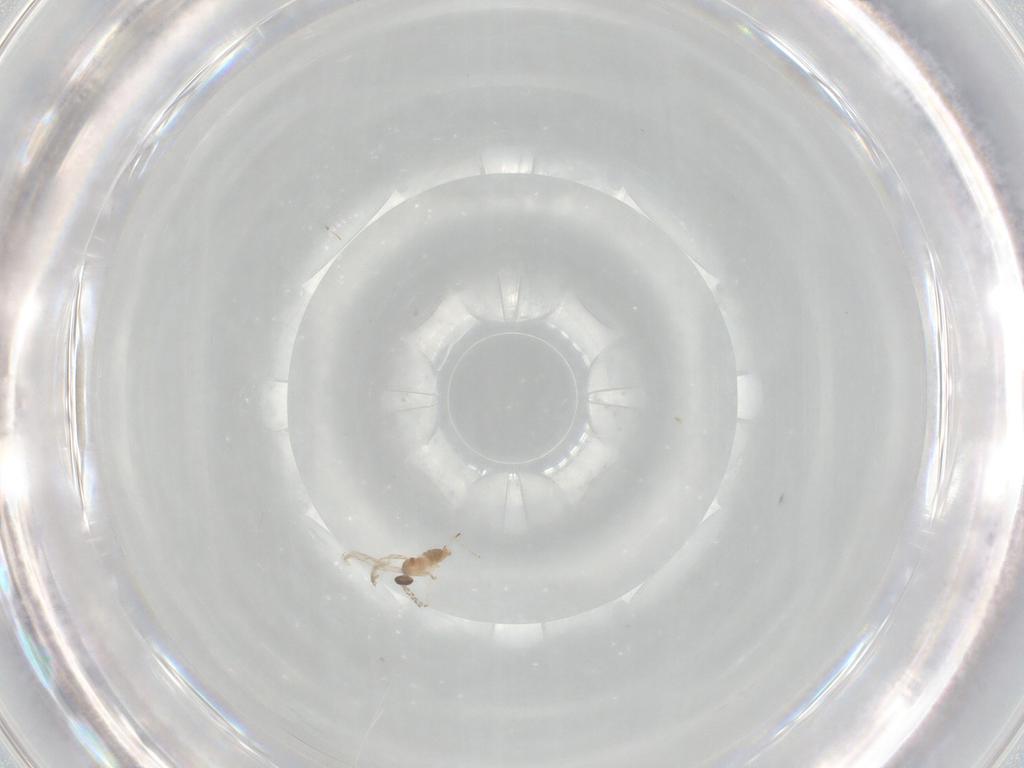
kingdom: Animalia
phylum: Arthropoda
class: Insecta
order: Diptera
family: Cecidomyiidae
